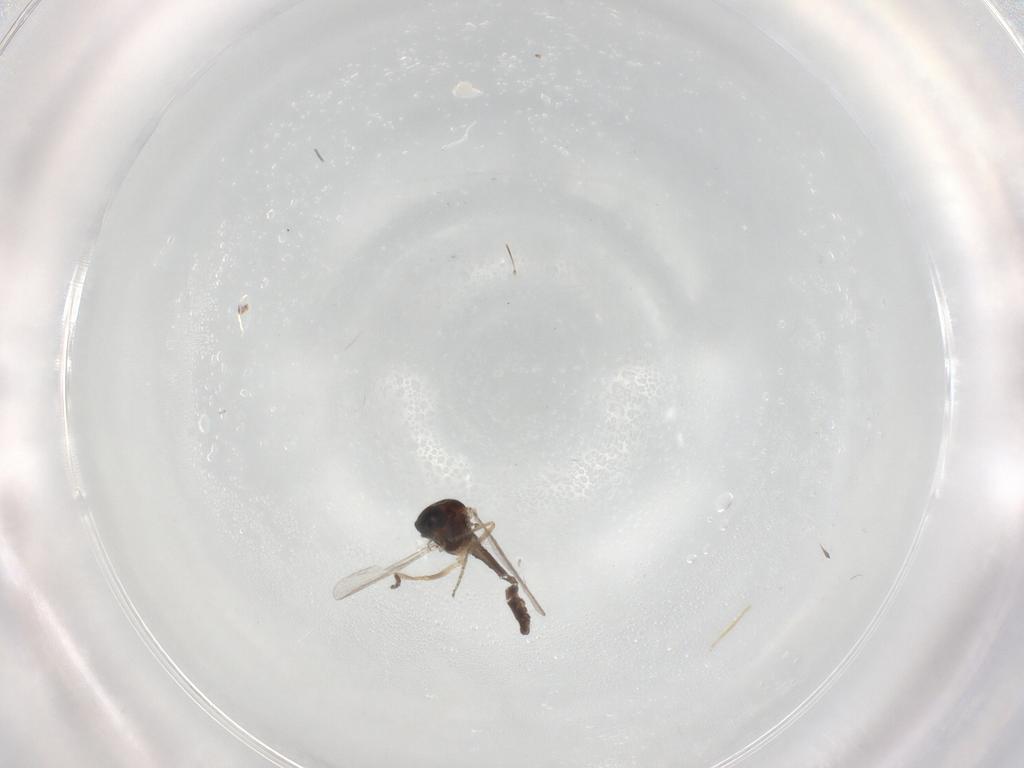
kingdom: Animalia
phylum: Arthropoda
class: Insecta
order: Diptera
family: Ceratopogonidae
